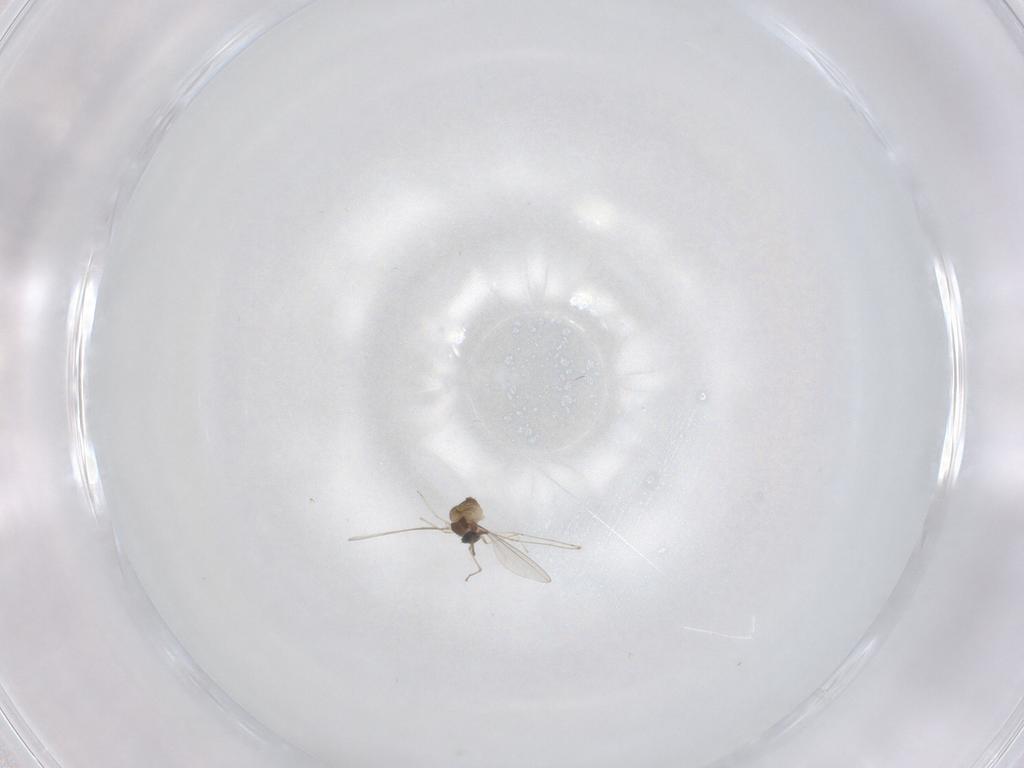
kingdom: Animalia
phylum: Arthropoda
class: Insecta
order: Diptera
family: Cecidomyiidae
